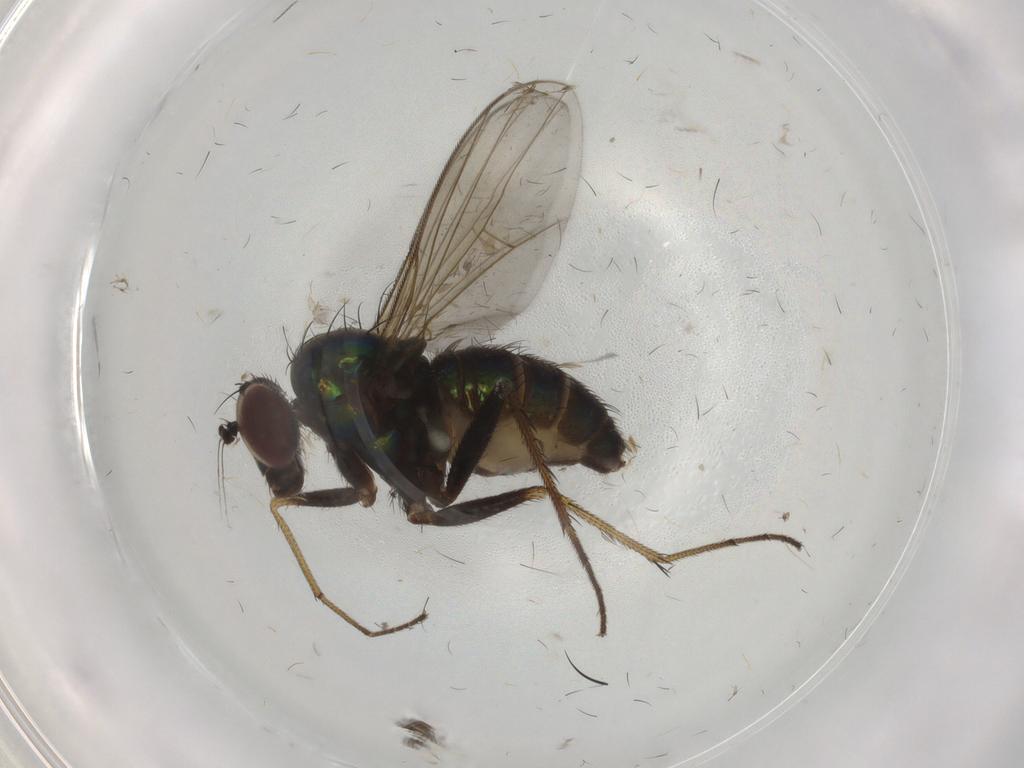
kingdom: Animalia
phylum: Arthropoda
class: Insecta
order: Diptera
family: Dolichopodidae
